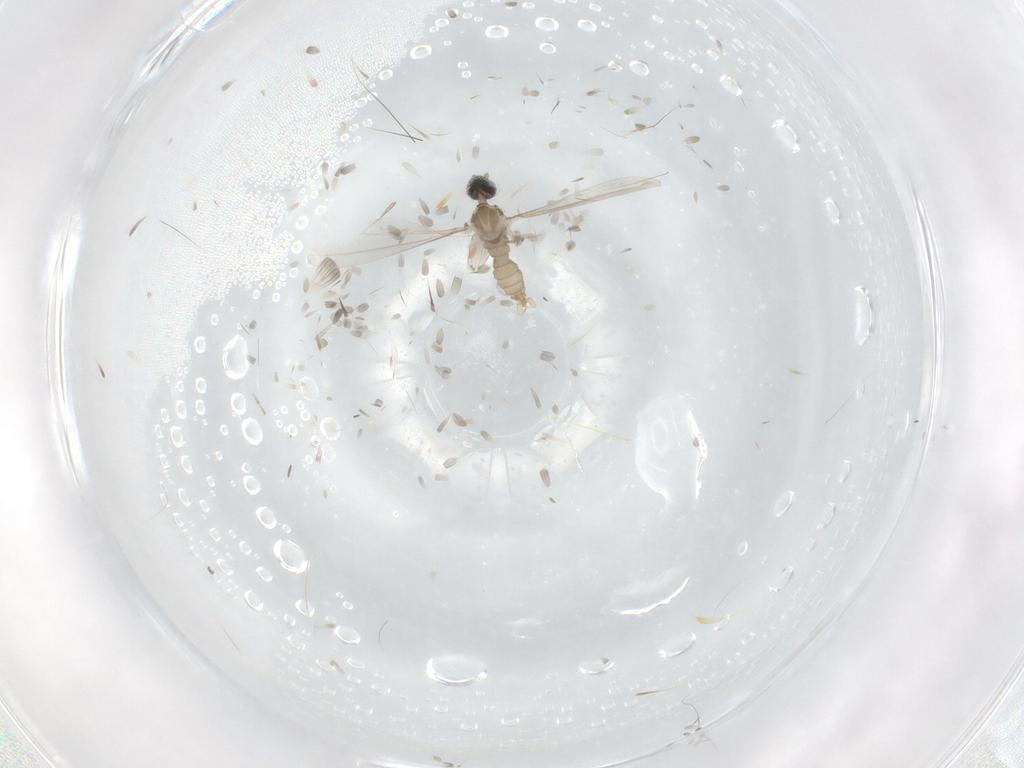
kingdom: Animalia
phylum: Arthropoda
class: Insecta
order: Diptera
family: Cecidomyiidae
